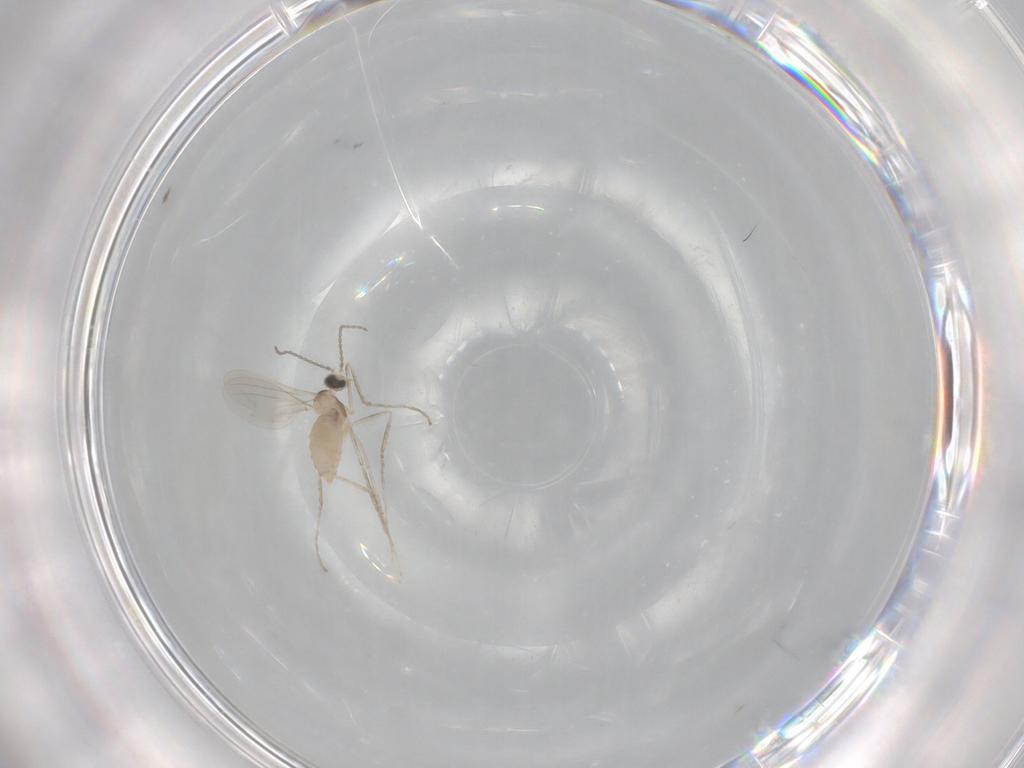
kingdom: Animalia
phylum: Arthropoda
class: Insecta
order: Diptera
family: Cecidomyiidae
